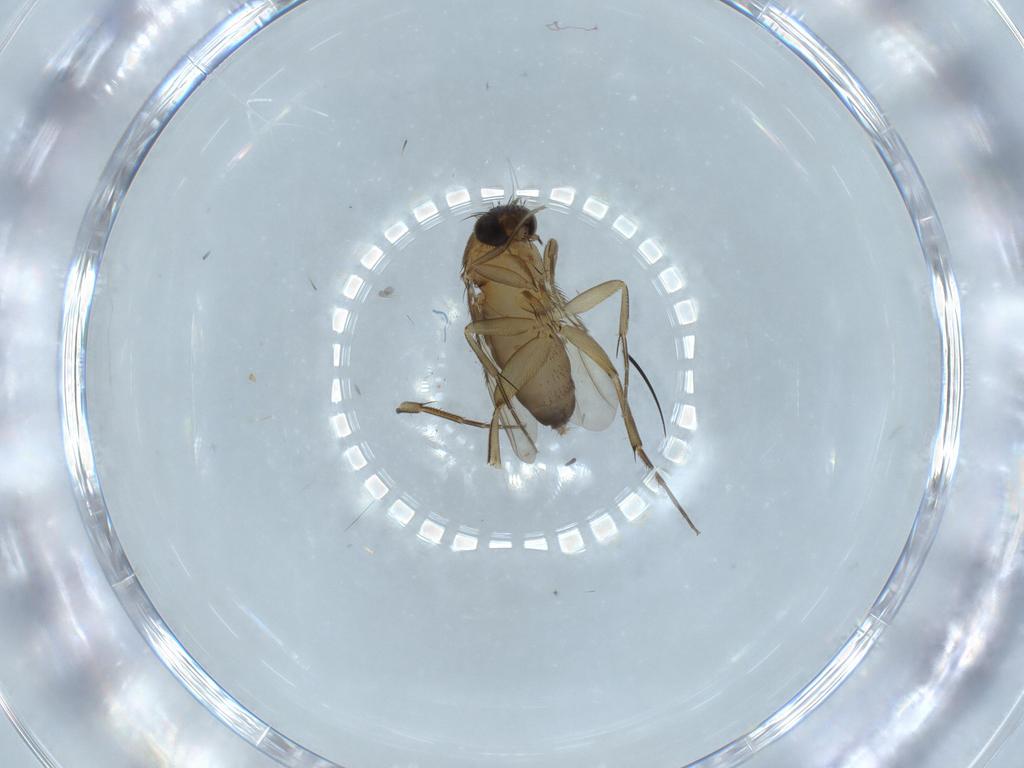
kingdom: Animalia
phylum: Arthropoda
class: Insecta
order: Diptera
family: Phoridae
